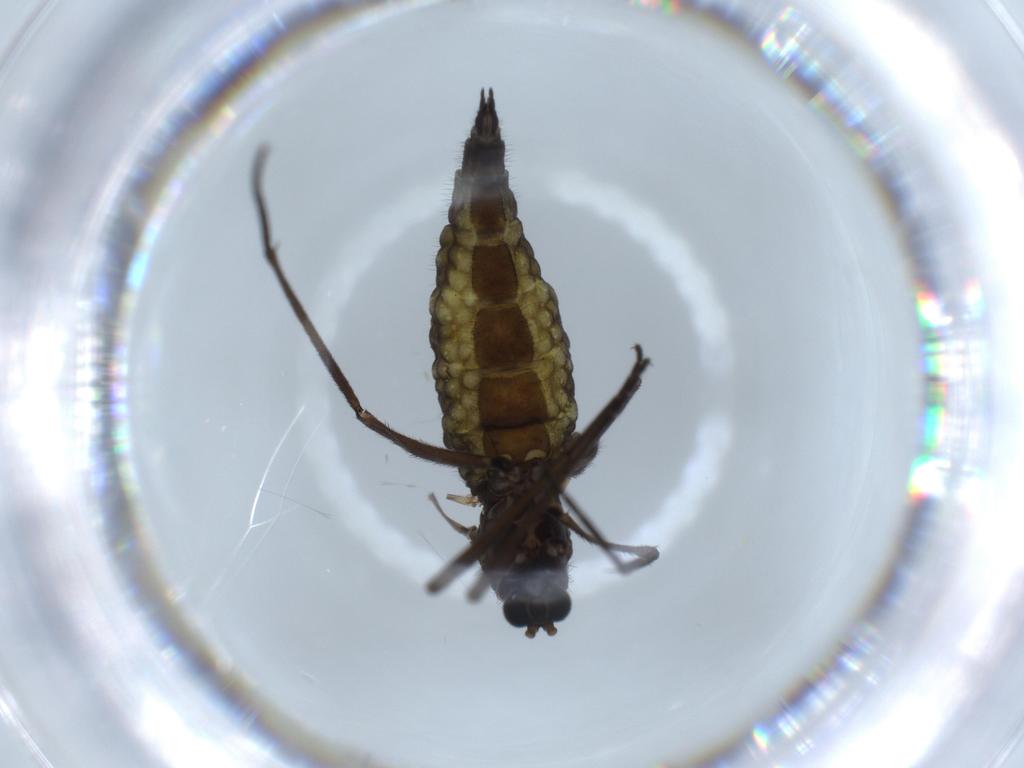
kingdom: Animalia
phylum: Arthropoda
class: Insecta
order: Diptera
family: Sciaridae
